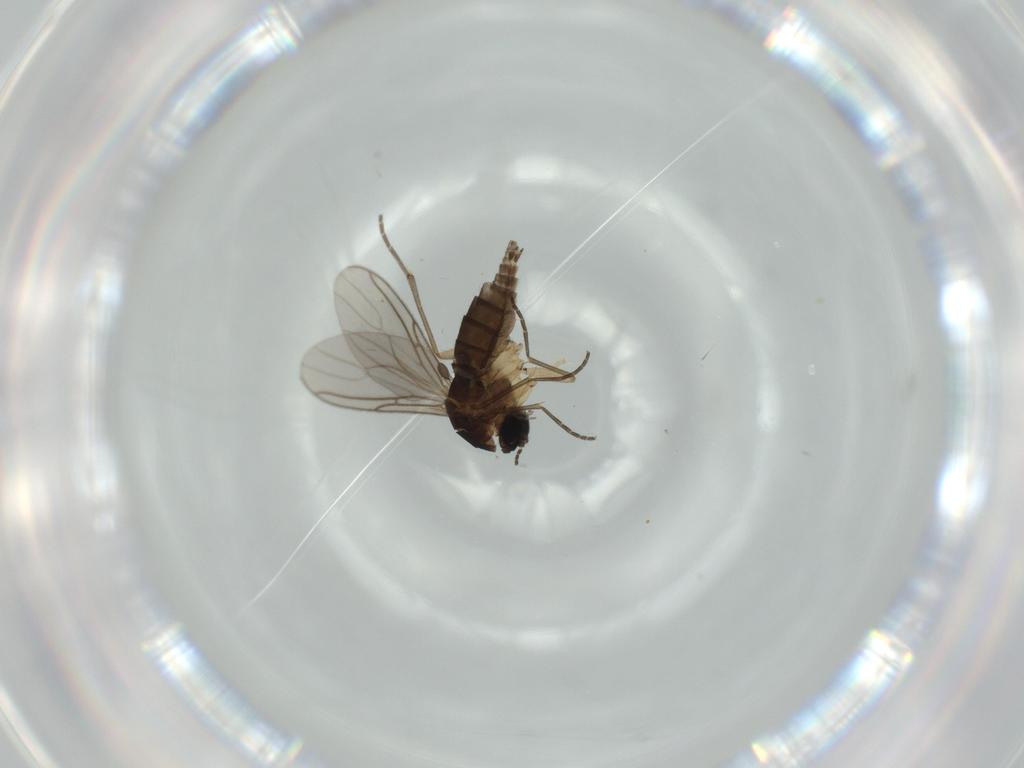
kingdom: Animalia
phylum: Arthropoda
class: Insecta
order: Diptera
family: Sciaridae
